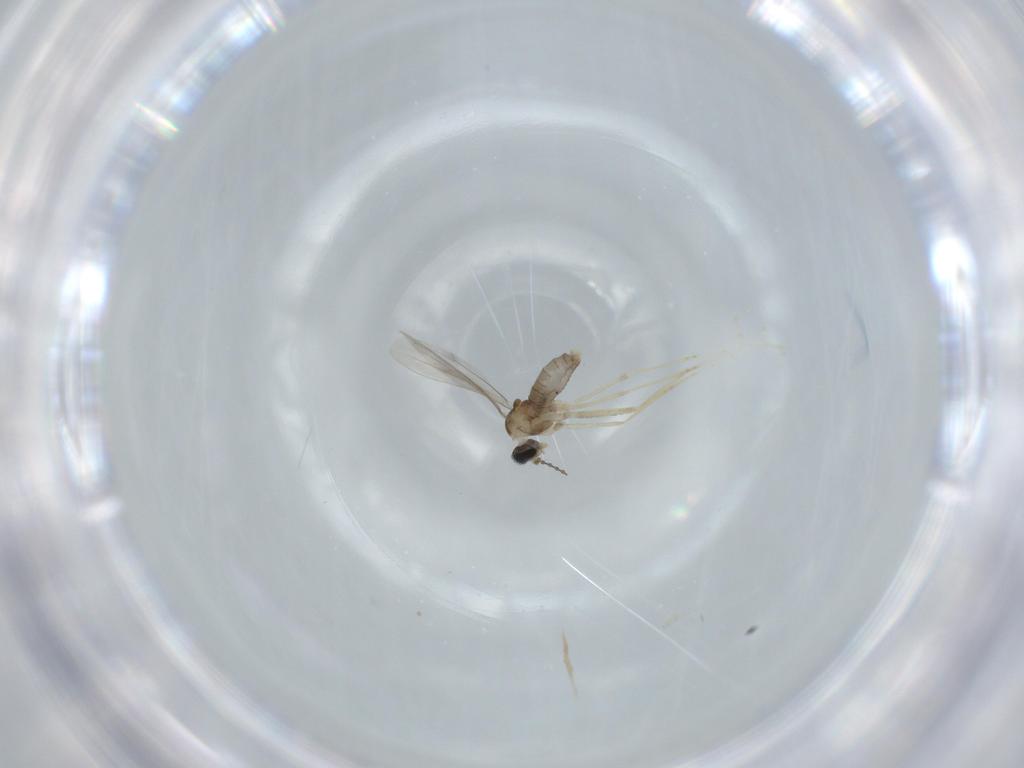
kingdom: Animalia
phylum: Arthropoda
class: Insecta
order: Diptera
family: Cecidomyiidae
